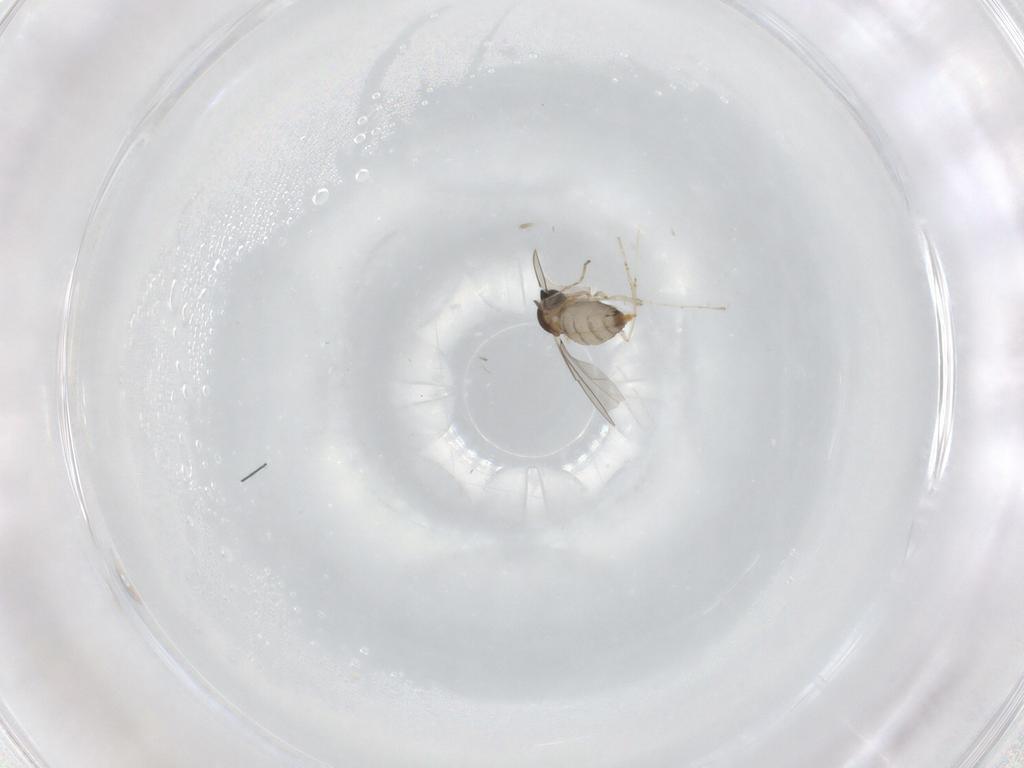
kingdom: Animalia
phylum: Arthropoda
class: Insecta
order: Diptera
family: Cecidomyiidae
